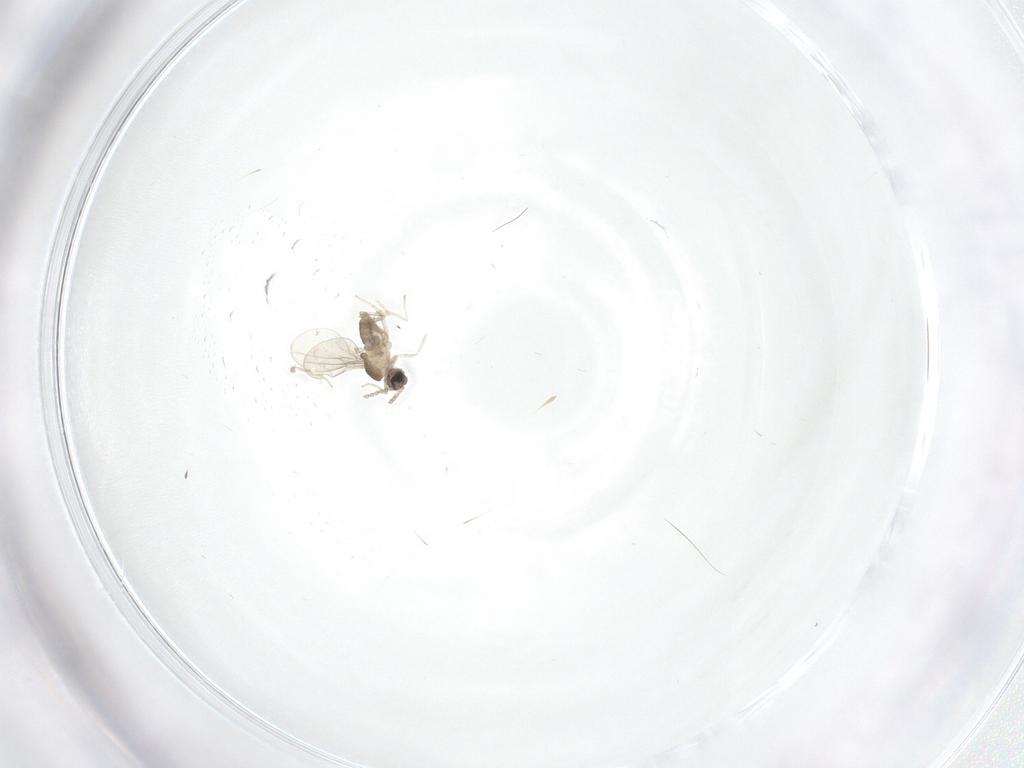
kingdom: Animalia
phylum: Arthropoda
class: Insecta
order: Diptera
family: Cecidomyiidae
